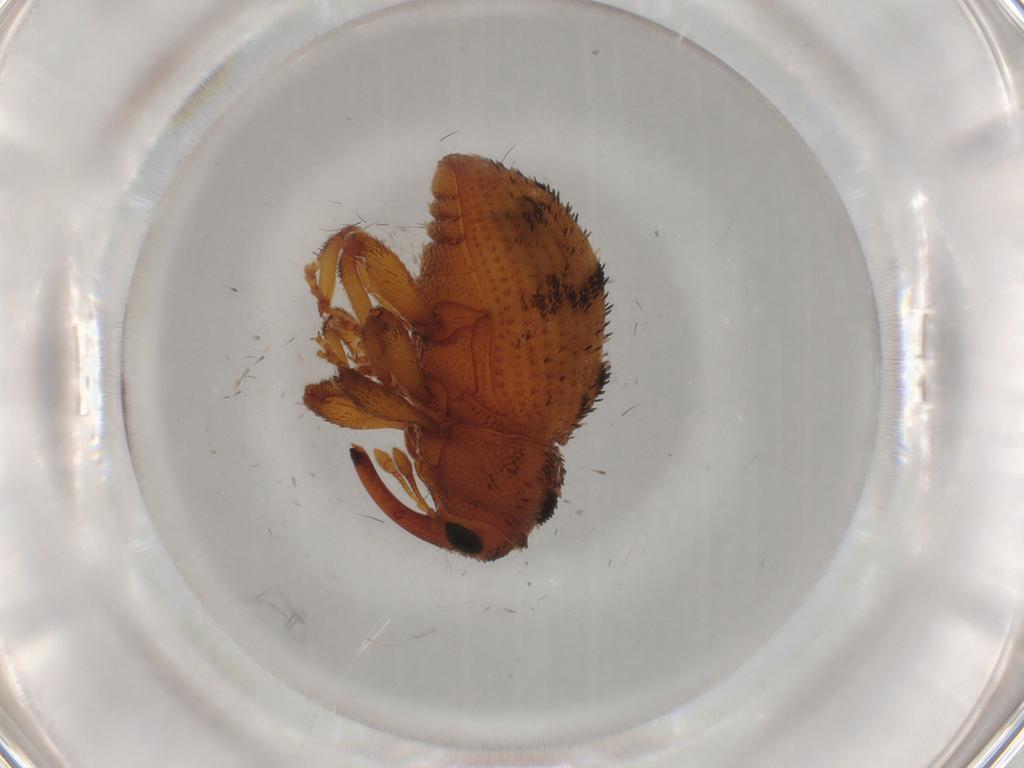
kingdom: Animalia
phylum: Arthropoda
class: Insecta
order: Coleoptera
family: Curculionidae
